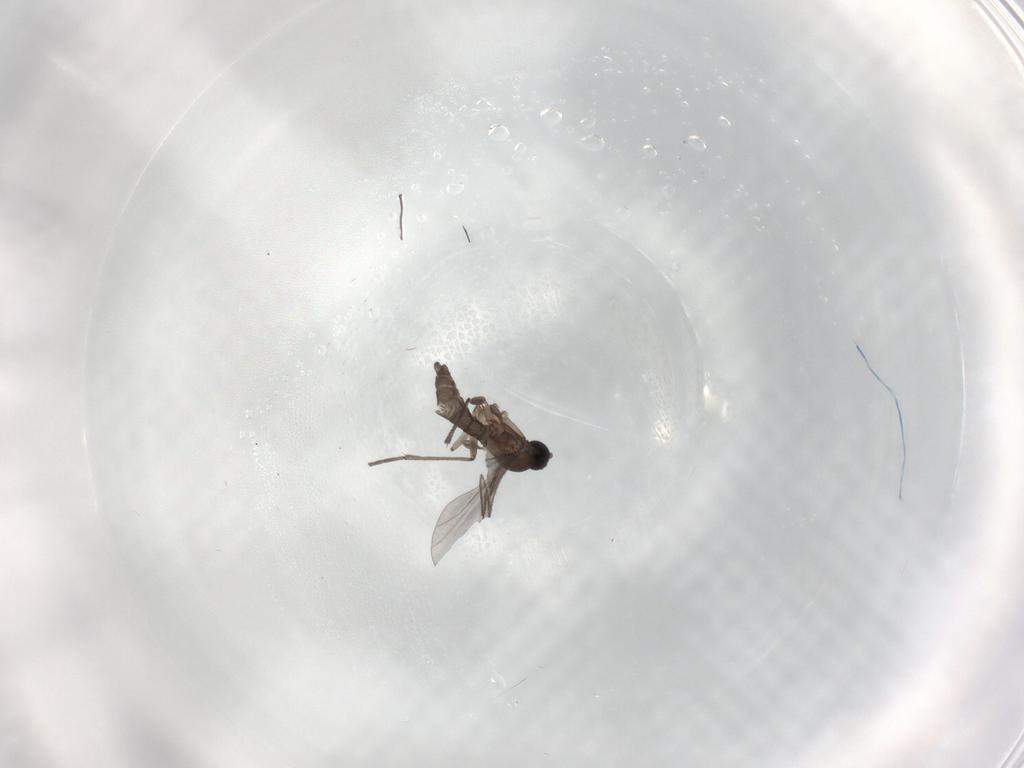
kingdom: Animalia
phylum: Arthropoda
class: Insecta
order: Diptera
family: Sciaridae
